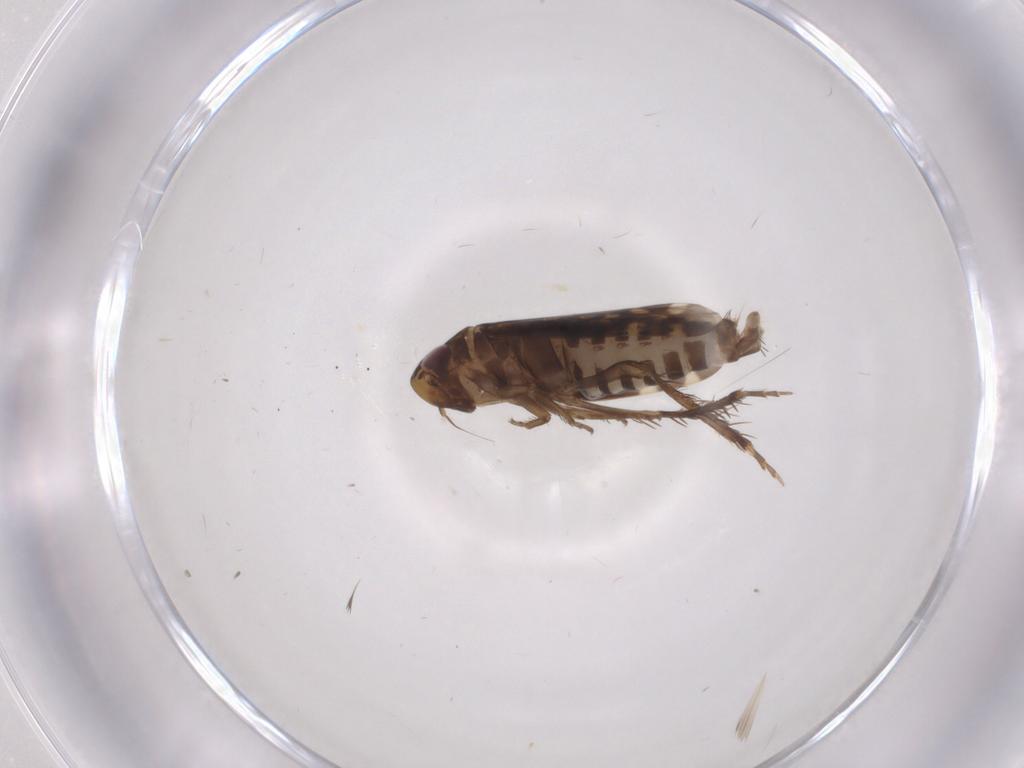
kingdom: Animalia
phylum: Arthropoda
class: Insecta
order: Hemiptera
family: Cicadellidae
